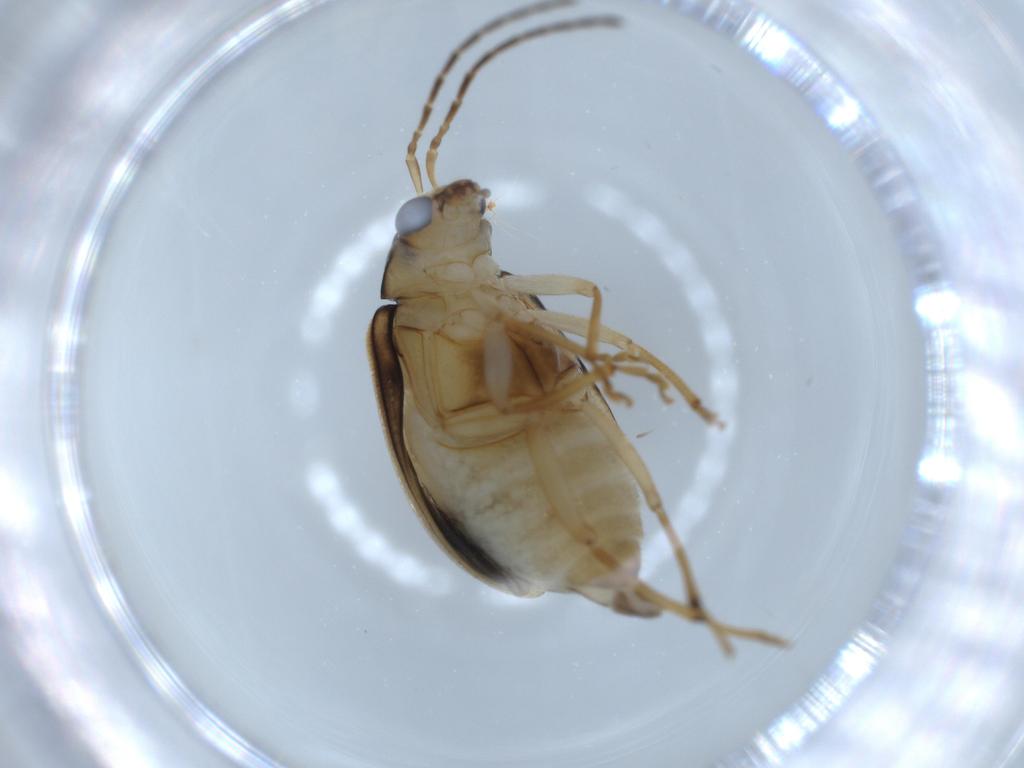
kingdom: Animalia
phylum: Arthropoda
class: Insecta
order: Coleoptera
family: Chrysomelidae
